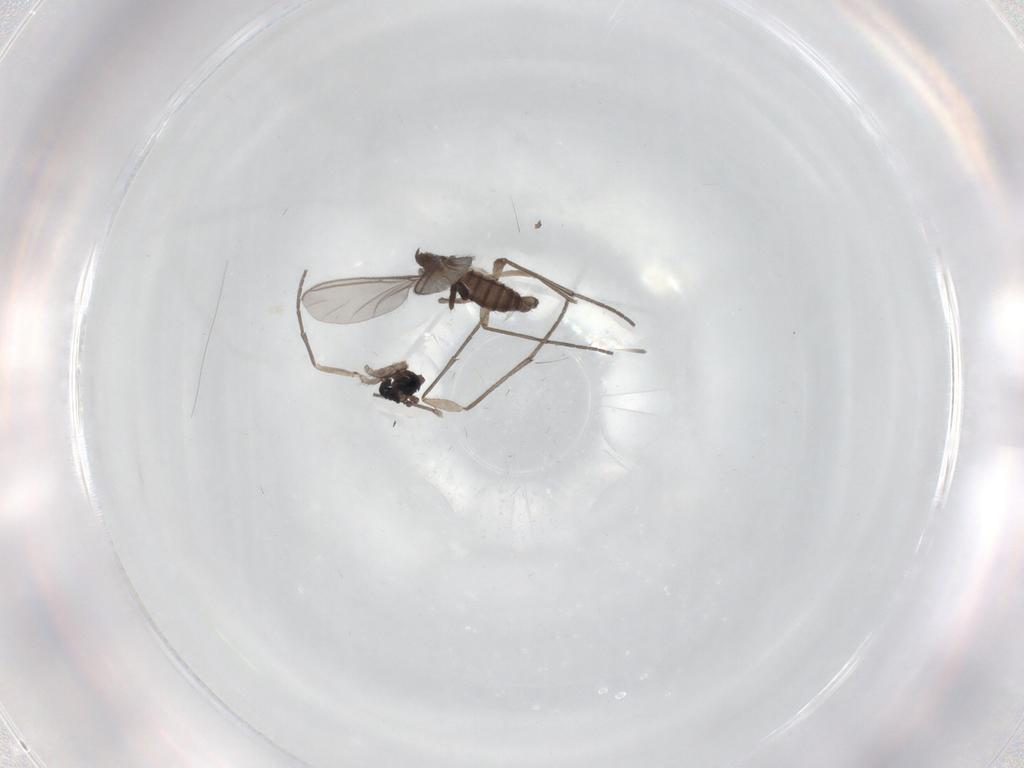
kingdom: Animalia
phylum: Arthropoda
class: Insecta
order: Diptera
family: Sciaridae
